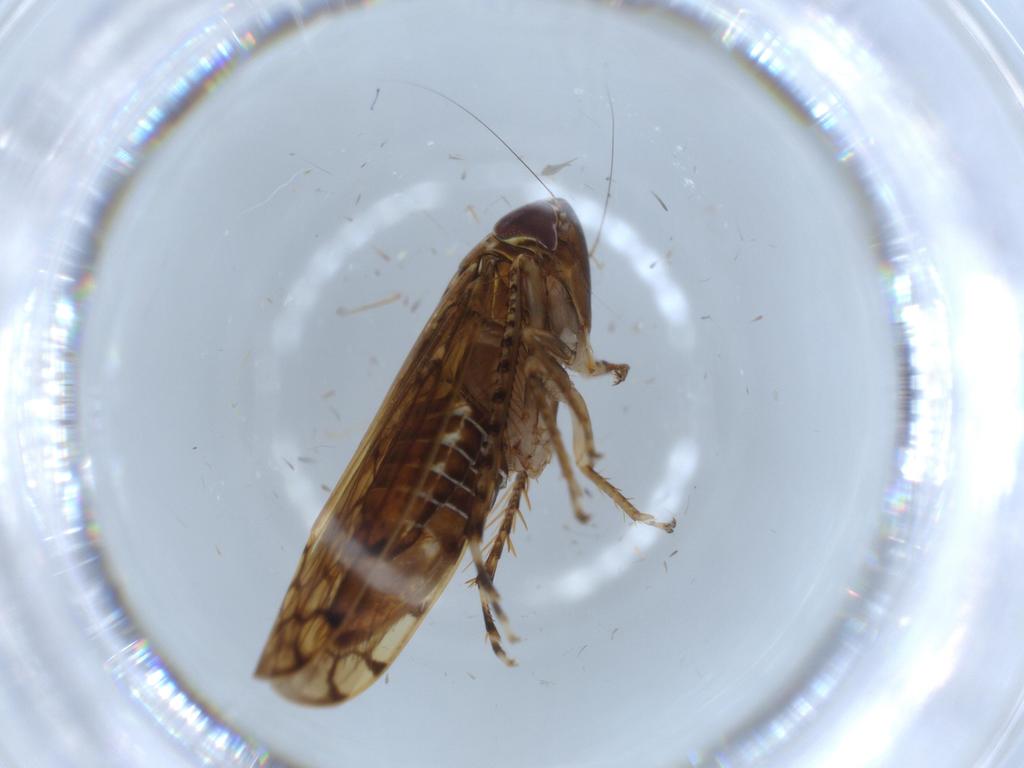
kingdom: Animalia
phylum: Arthropoda
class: Insecta
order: Hemiptera
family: Cicadellidae
